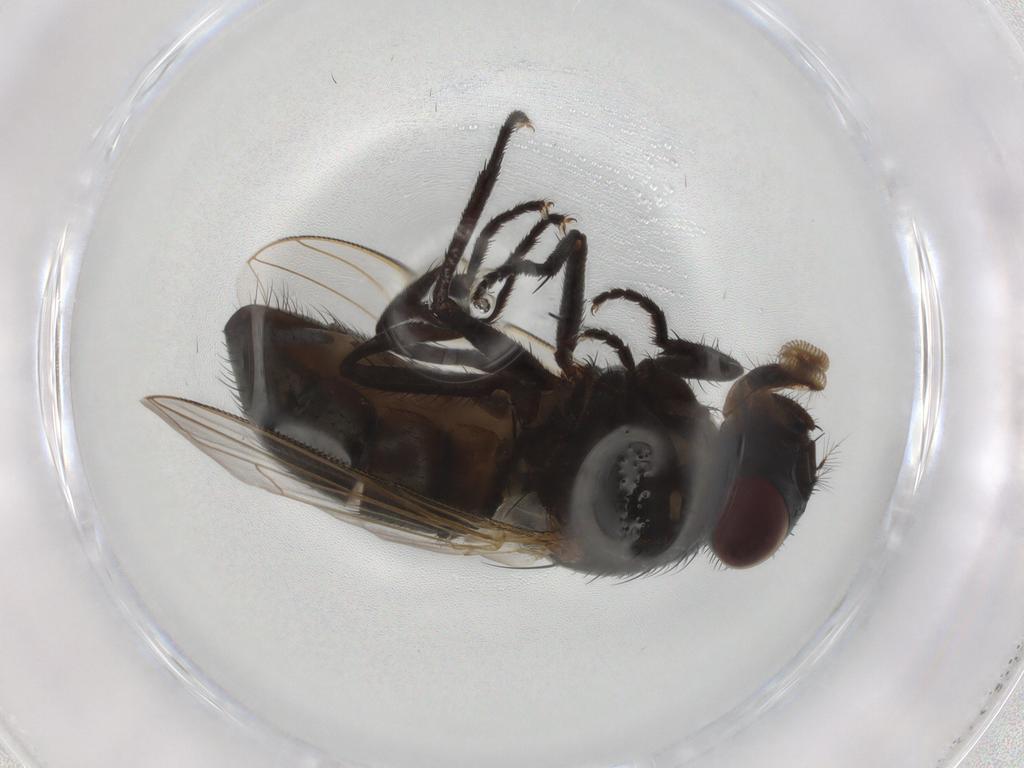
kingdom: Animalia
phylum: Arthropoda
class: Insecta
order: Diptera
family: Muscidae
